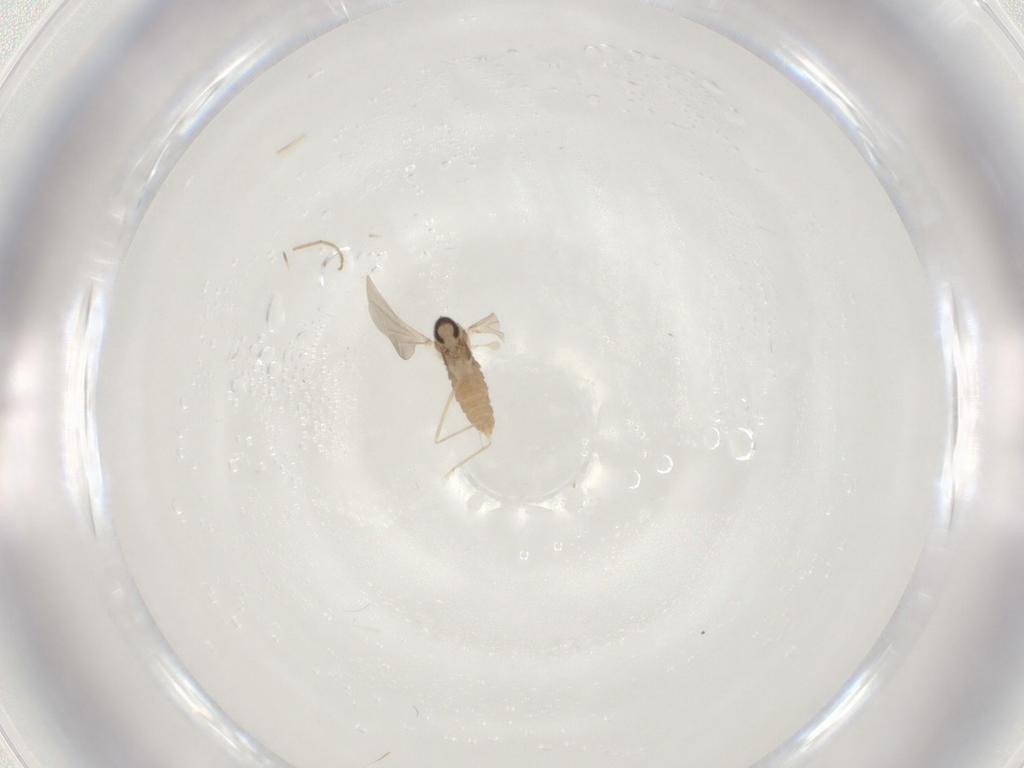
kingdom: Animalia
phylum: Arthropoda
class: Insecta
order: Diptera
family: Cecidomyiidae
